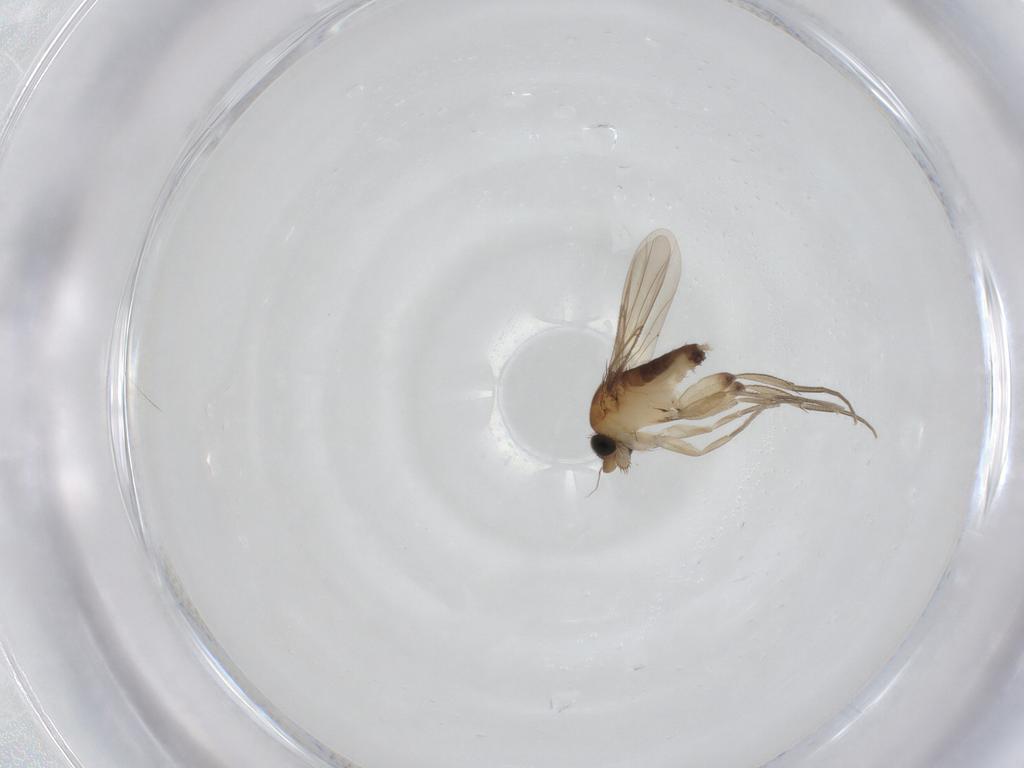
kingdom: Animalia
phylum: Arthropoda
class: Insecta
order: Diptera
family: Phoridae
